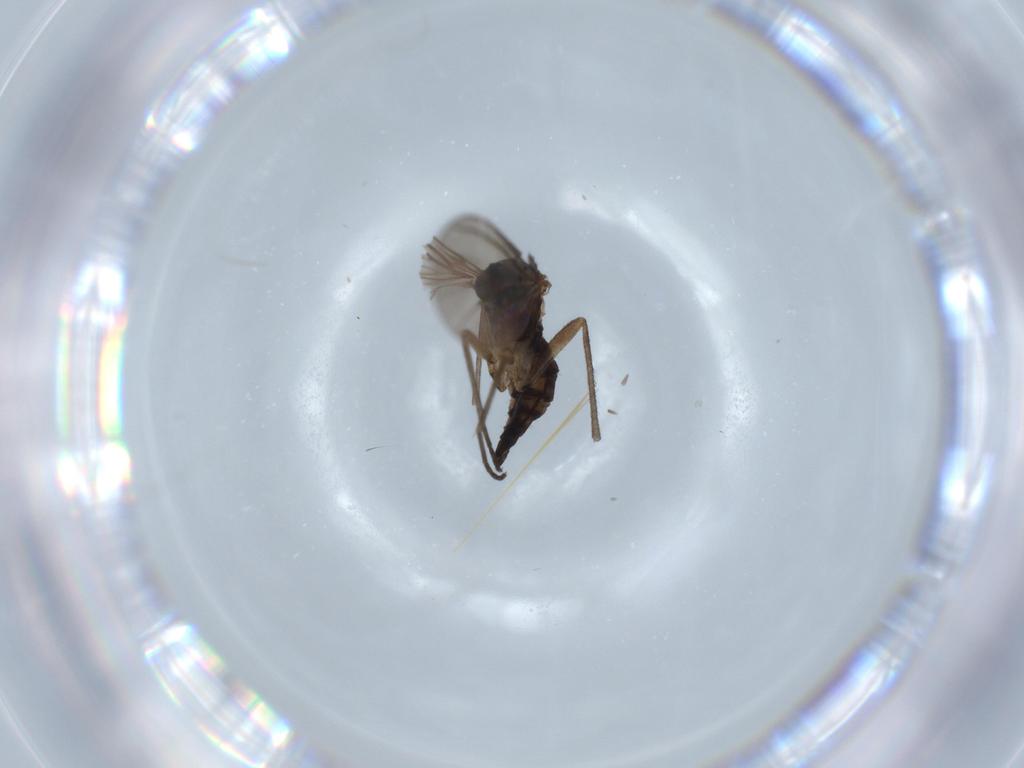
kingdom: Animalia
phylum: Arthropoda
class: Insecta
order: Diptera
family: Sciaridae
